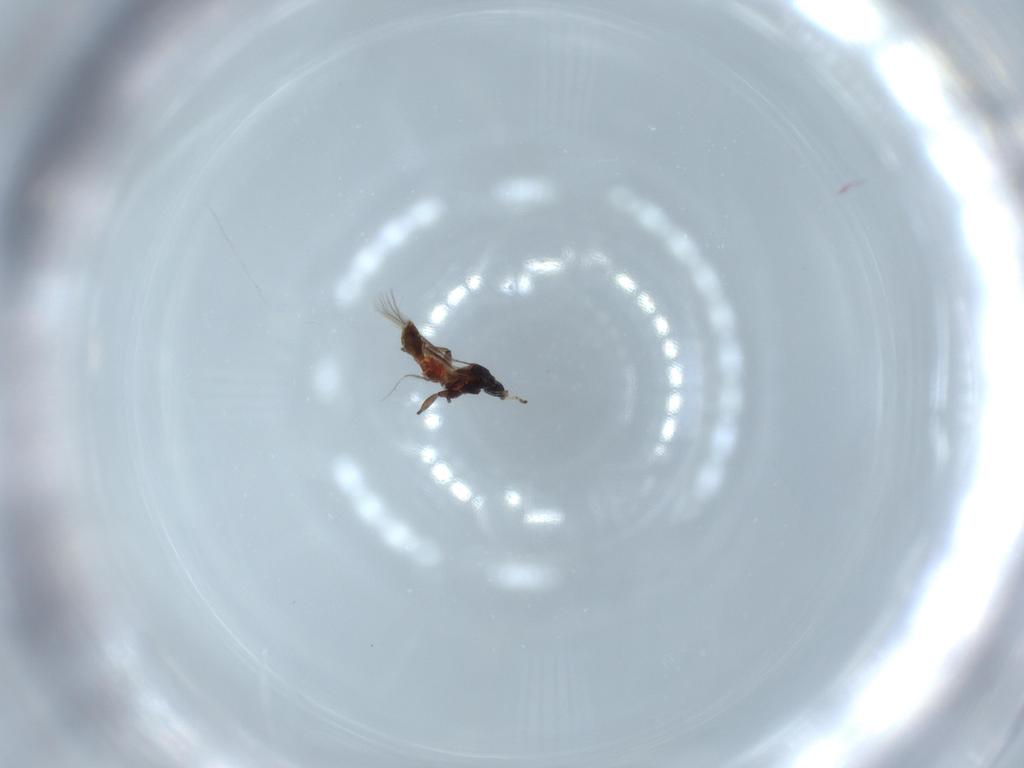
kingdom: Animalia
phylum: Arthropoda
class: Insecta
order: Thysanoptera
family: Aeolothripidae
